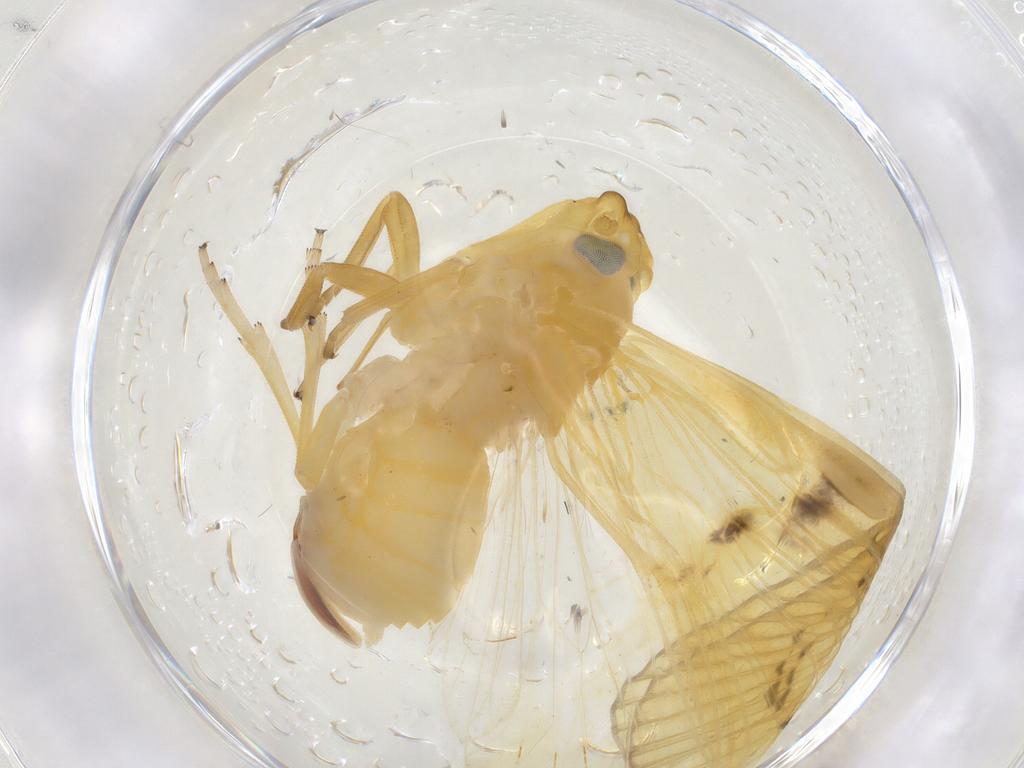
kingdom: Animalia
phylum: Arthropoda
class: Insecta
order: Hemiptera
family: Cixiidae
